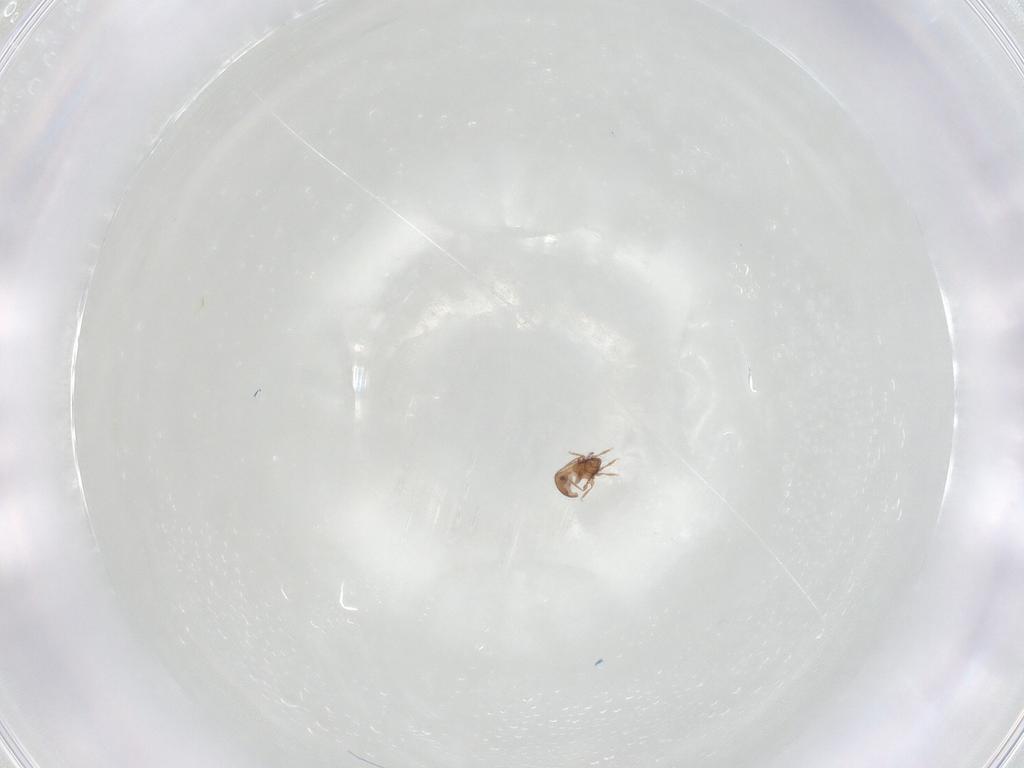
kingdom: Animalia
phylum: Arthropoda
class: Arachnida
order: Sarcoptiformes
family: Oribatulidae
